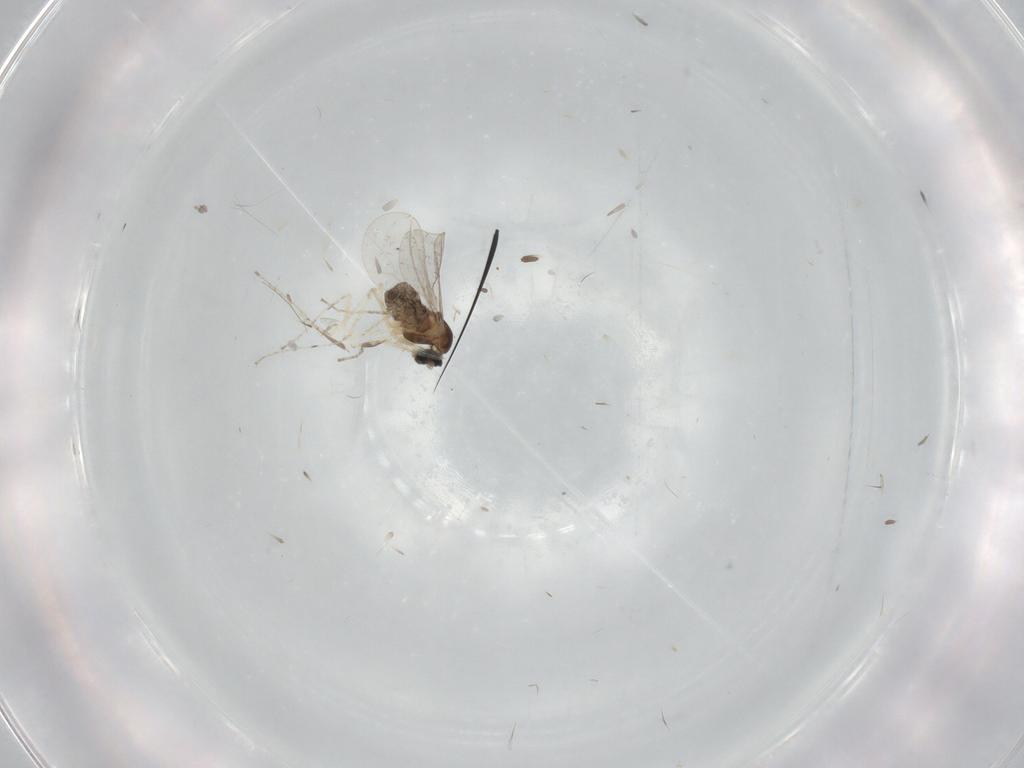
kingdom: Animalia
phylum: Arthropoda
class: Insecta
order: Diptera
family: Cecidomyiidae
